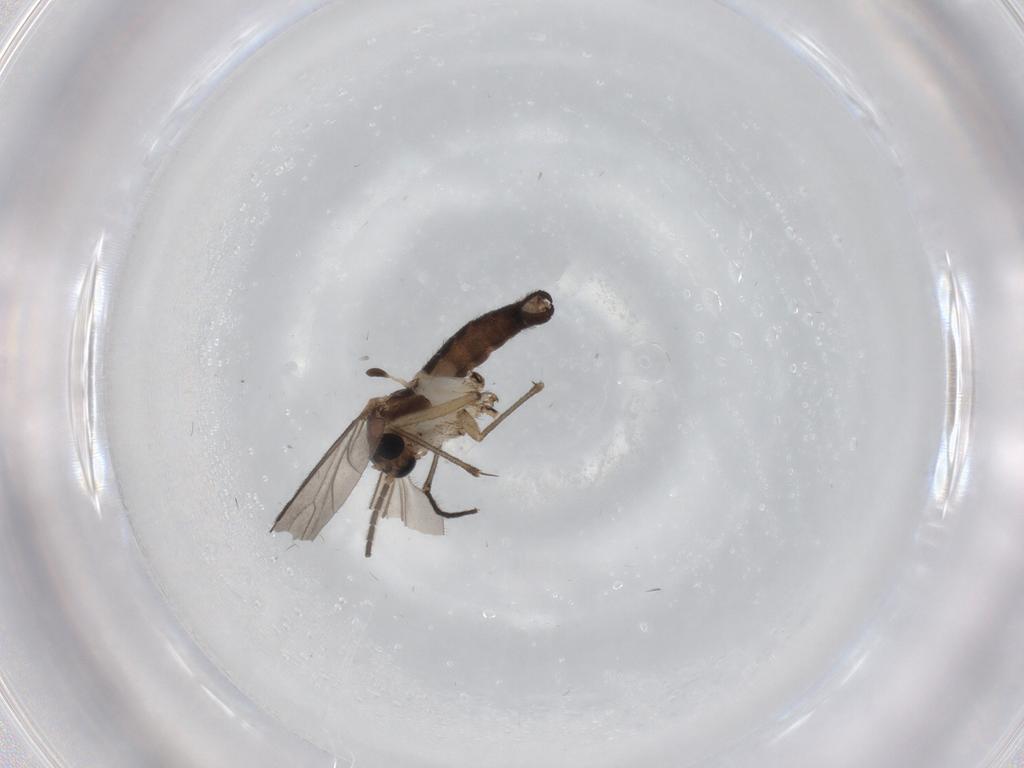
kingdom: Animalia
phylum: Arthropoda
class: Insecta
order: Diptera
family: Sciaridae
